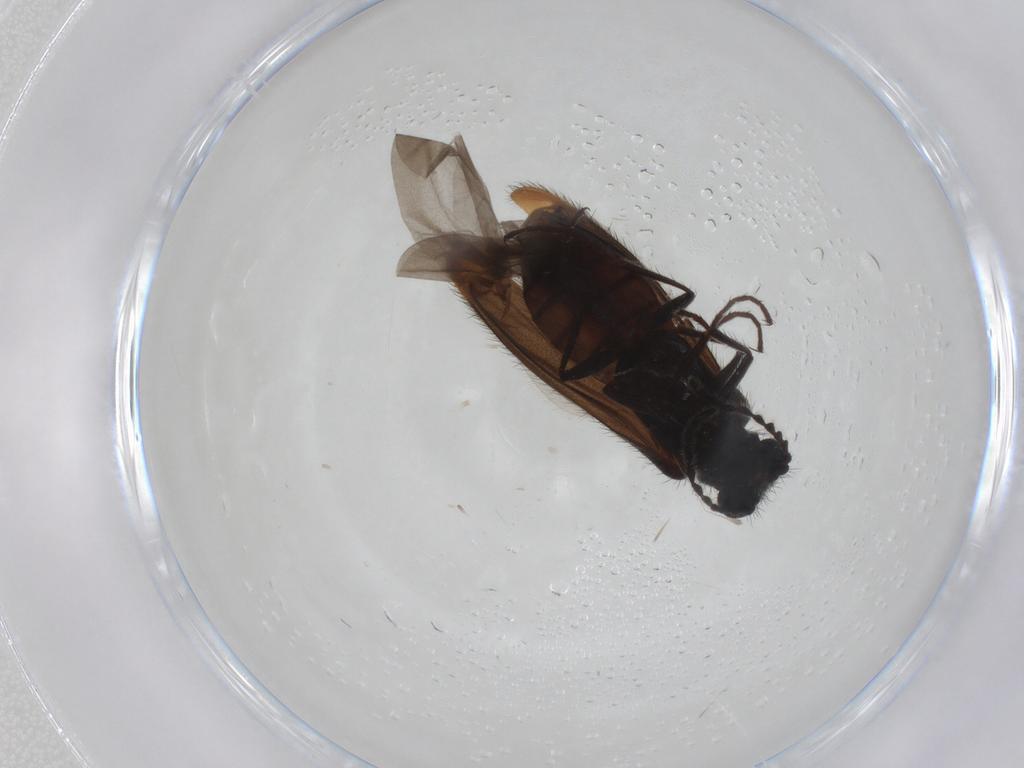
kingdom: Animalia
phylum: Arthropoda
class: Insecta
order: Coleoptera
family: Melyridae
